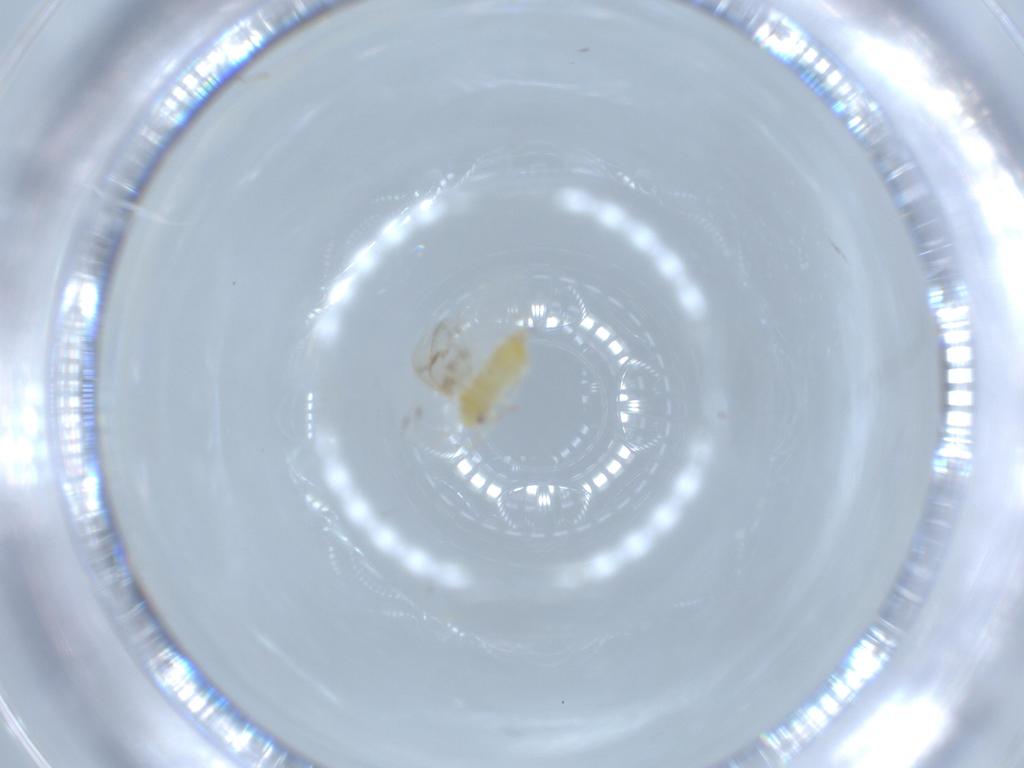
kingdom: Animalia
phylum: Arthropoda
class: Insecta
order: Hemiptera
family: Aleyrodidae
